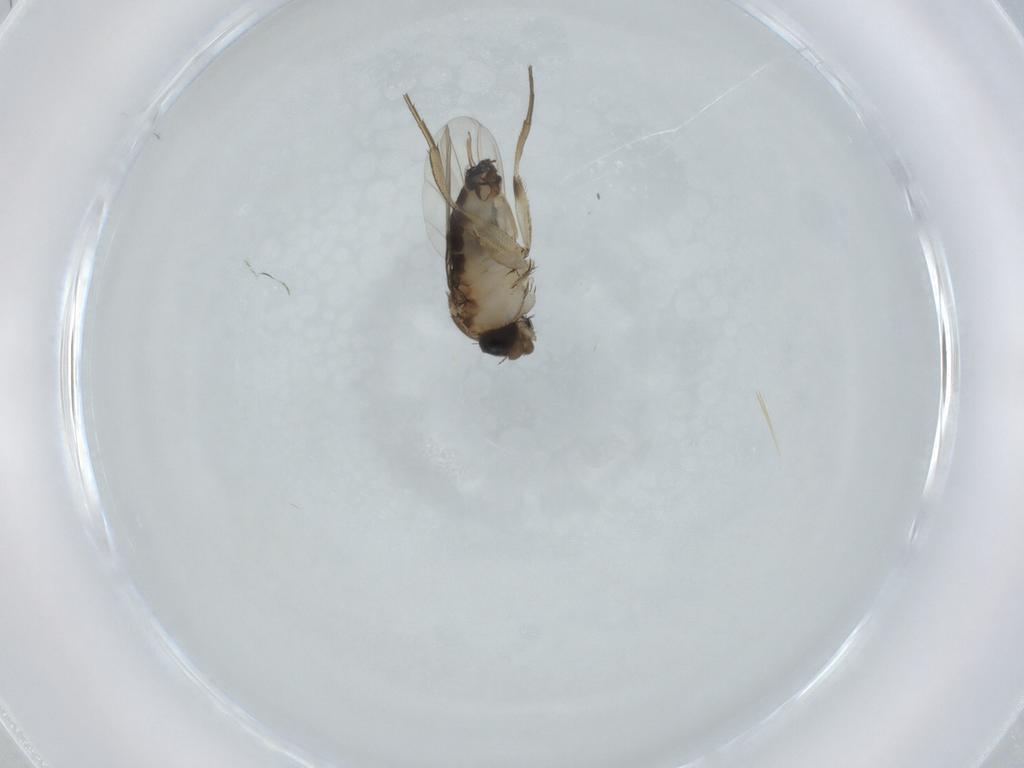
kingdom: Animalia
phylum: Arthropoda
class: Insecta
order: Diptera
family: Phoridae
